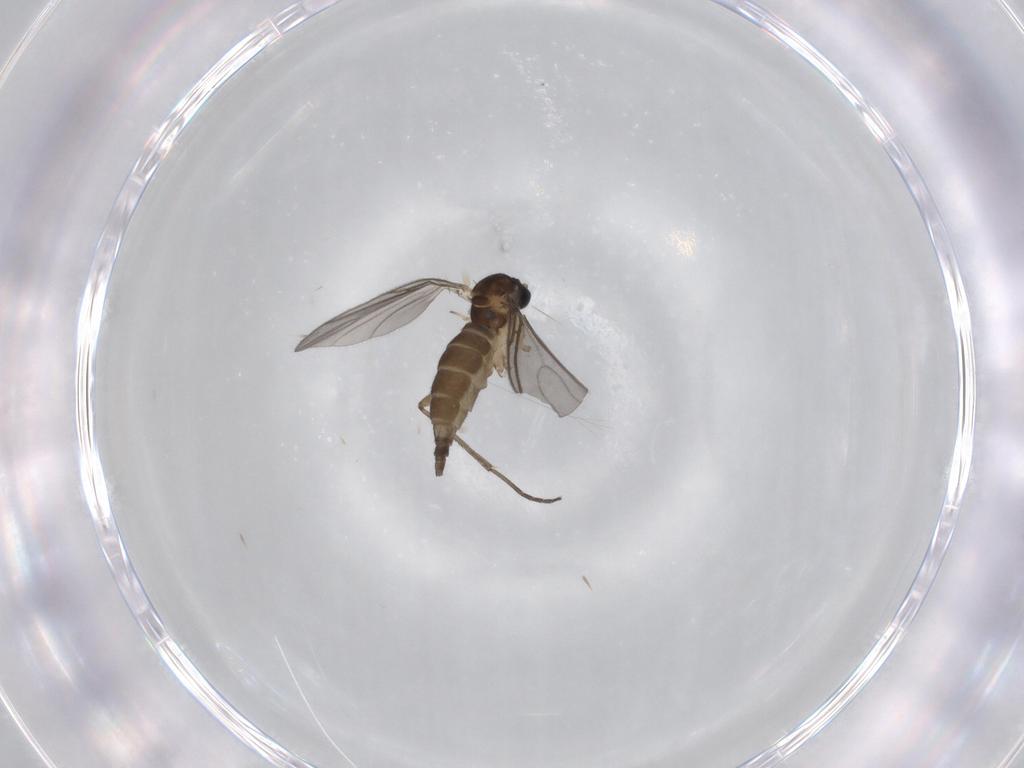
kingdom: Animalia
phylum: Arthropoda
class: Insecta
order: Diptera
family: Sciaridae
